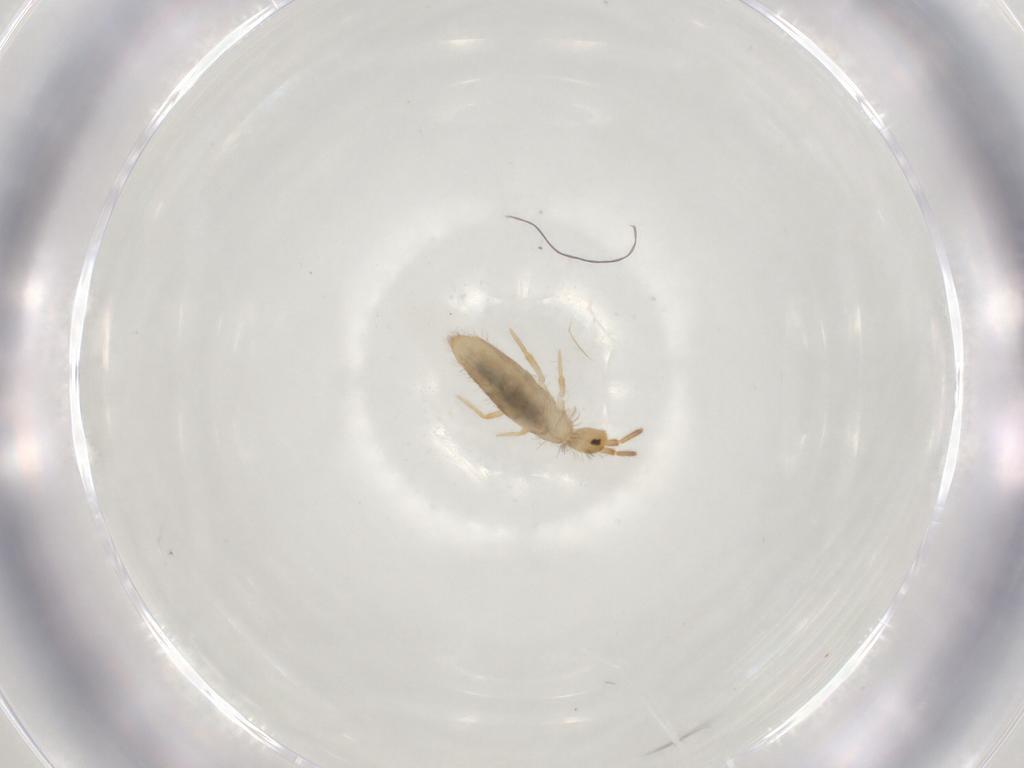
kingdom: Animalia
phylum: Arthropoda
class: Collembola
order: Entomobryomorpha
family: Entomobryidae
